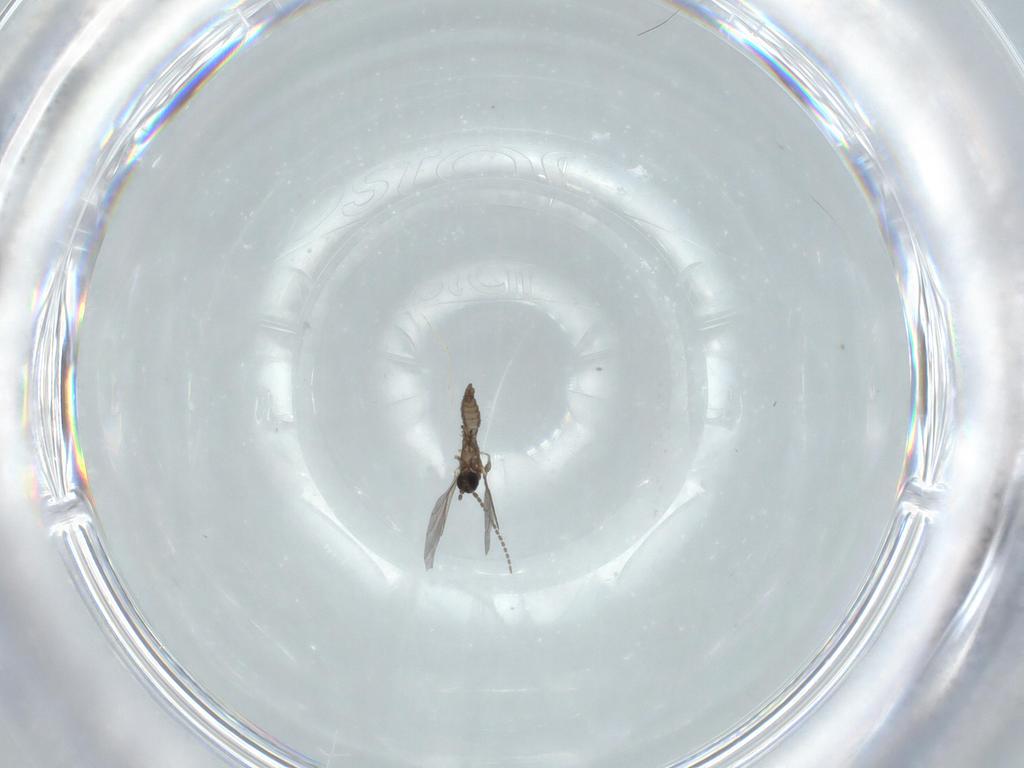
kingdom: Animalia
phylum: Arthropoda
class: Insecta
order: Diptera
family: Sciaridae
